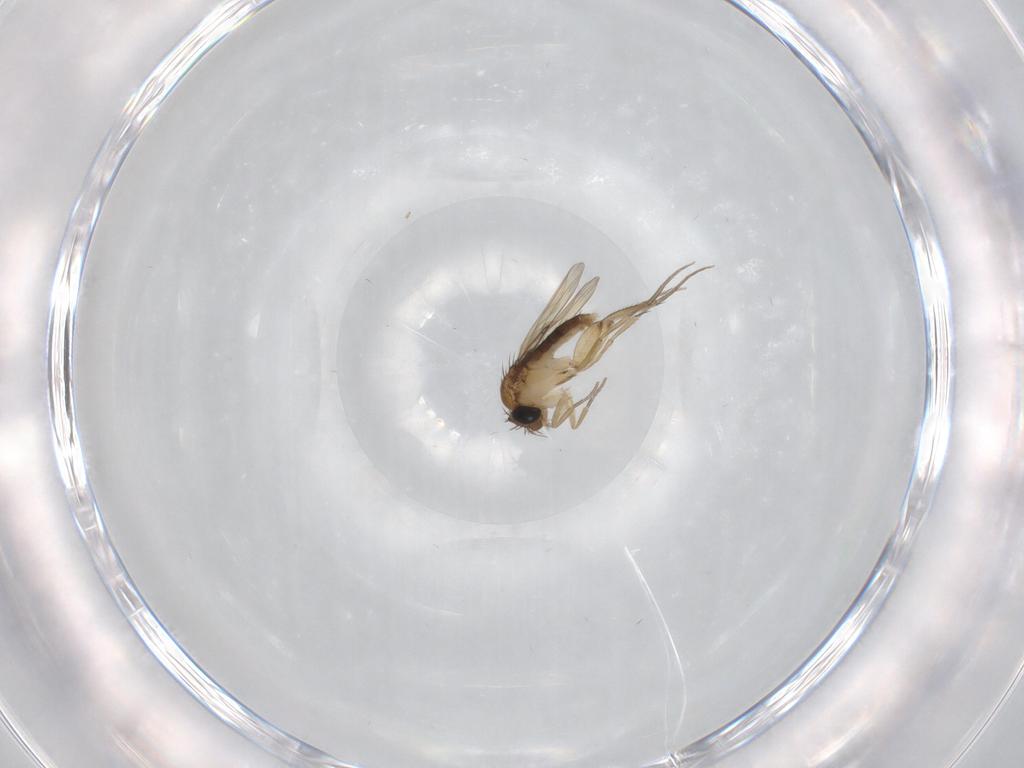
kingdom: Animalia
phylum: Arthropoda
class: Insecta
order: Diptera
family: Phoridae
